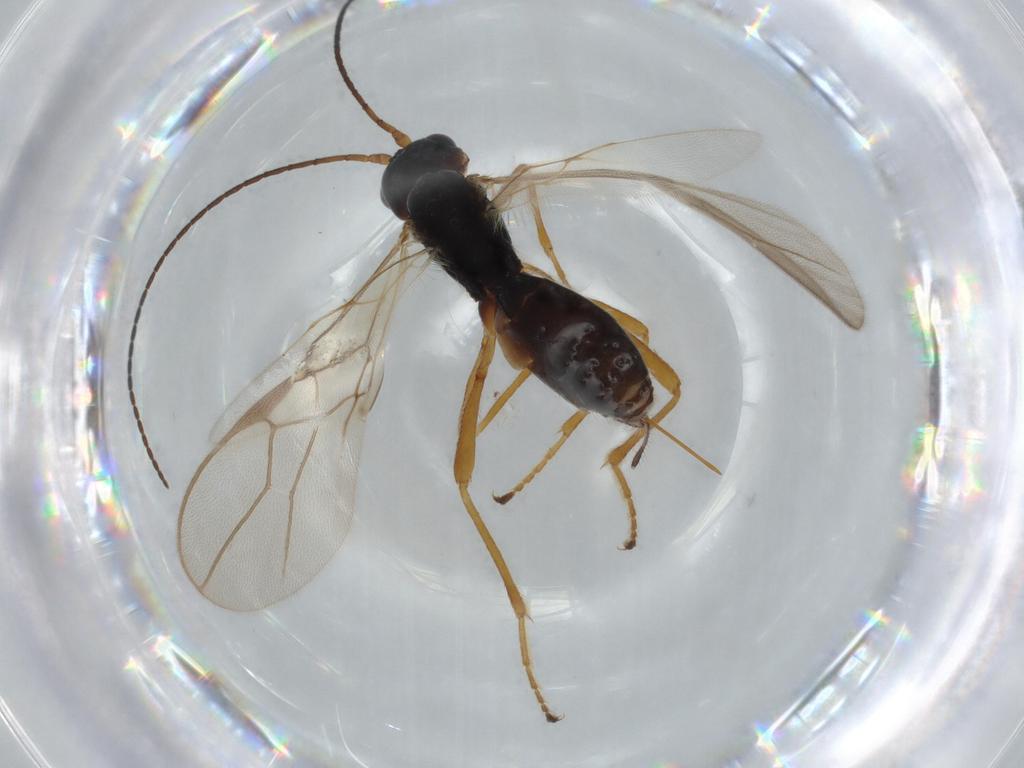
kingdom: Animalia
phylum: Arthropoda
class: Insecta
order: Hymenoptera
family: Braconidae
